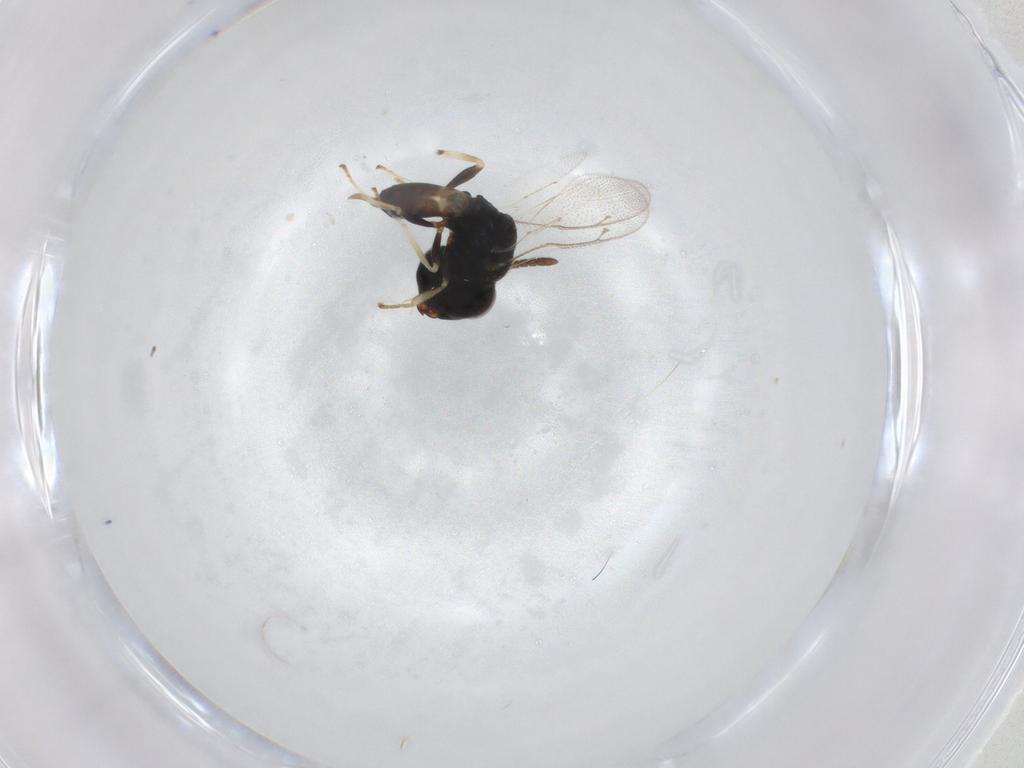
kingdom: Animalia
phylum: Arthropoda
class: Insecta
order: Hymenoptera
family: Pteromalidae
